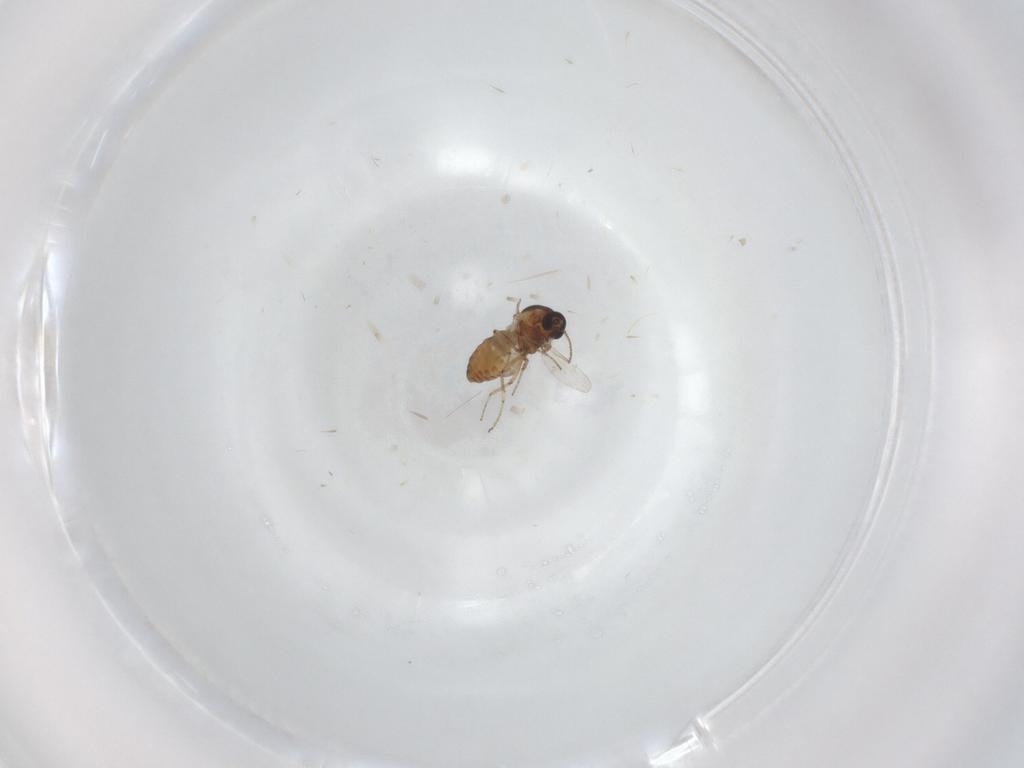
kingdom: Animalia
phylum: Arthropoda
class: Insecta
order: Diptera
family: Ceratopogonidae
